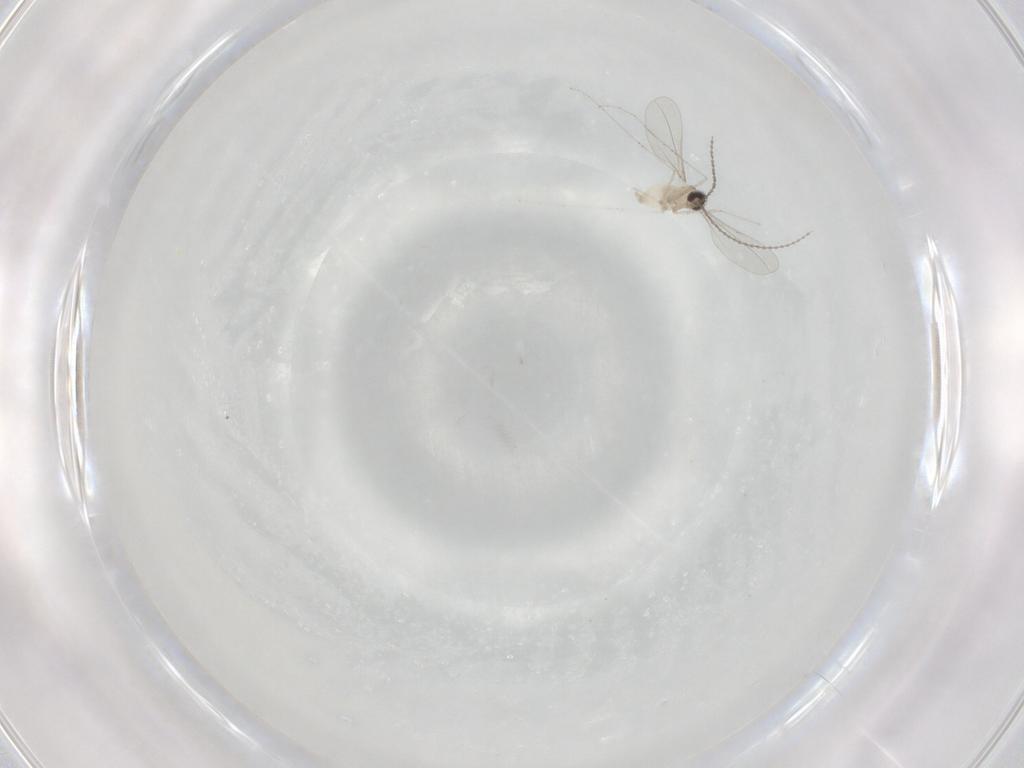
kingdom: Animalia
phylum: Arthropoda
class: Insecta
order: Diptera
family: Cecidomyiidae
